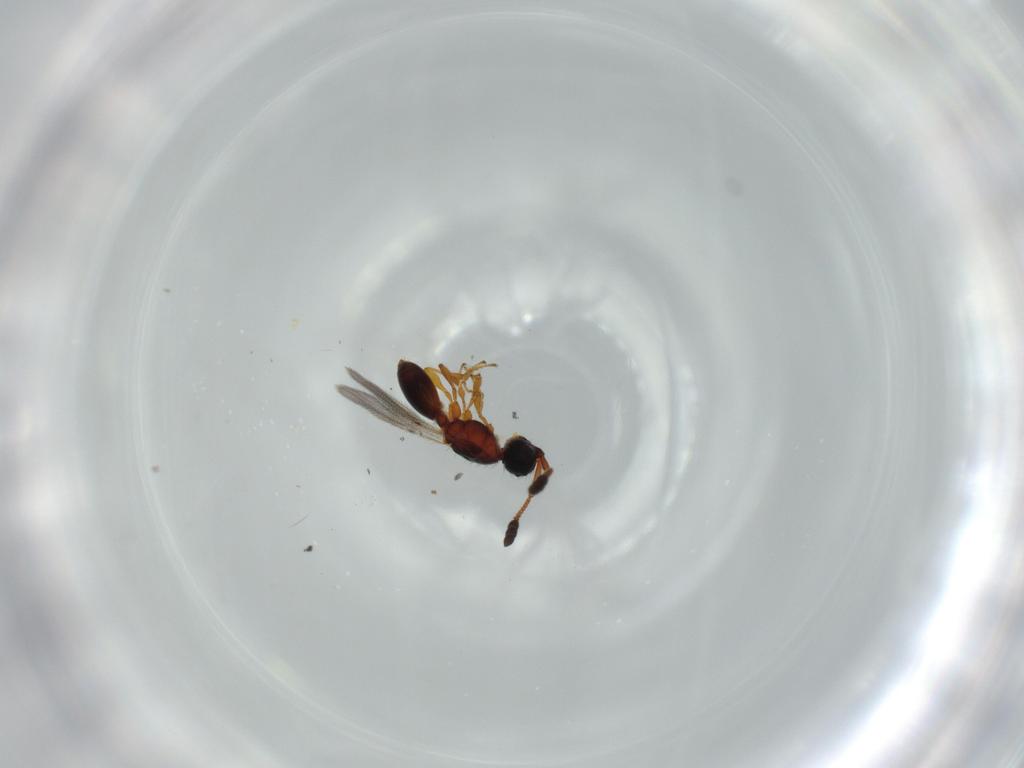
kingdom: Animalia
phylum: Arthropoda
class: Insecta
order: Hymenoptera
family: Diapriidae
